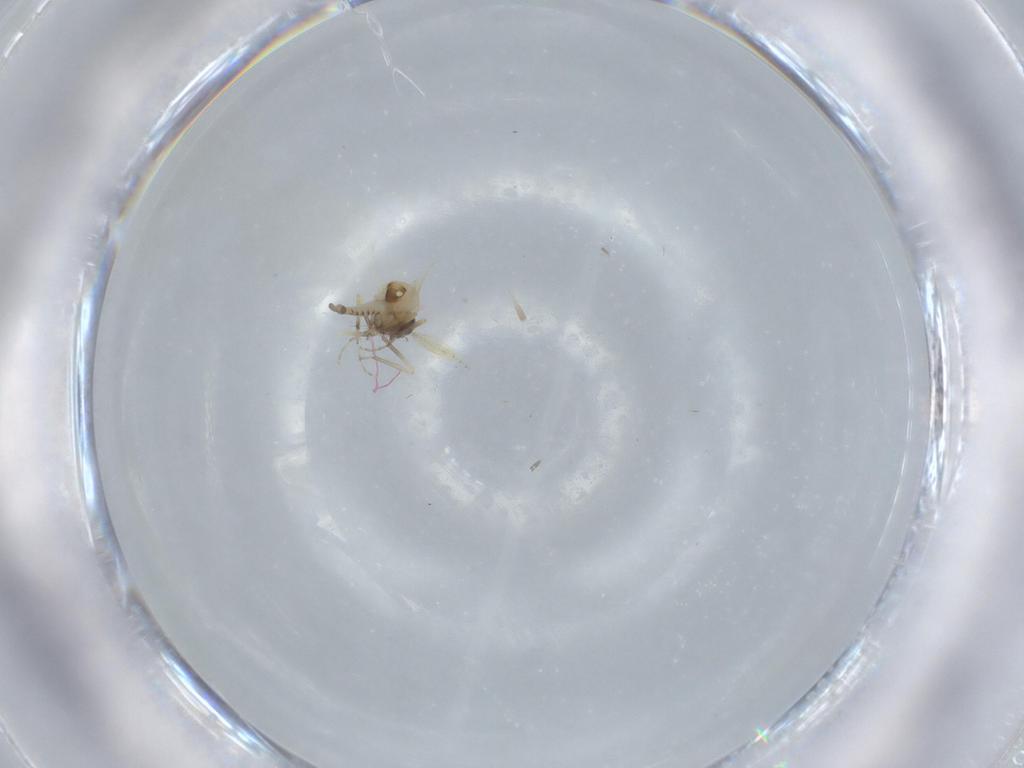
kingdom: Animalia
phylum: Arthropoda
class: Insecta
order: Diptera
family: Ceratopogonidae
